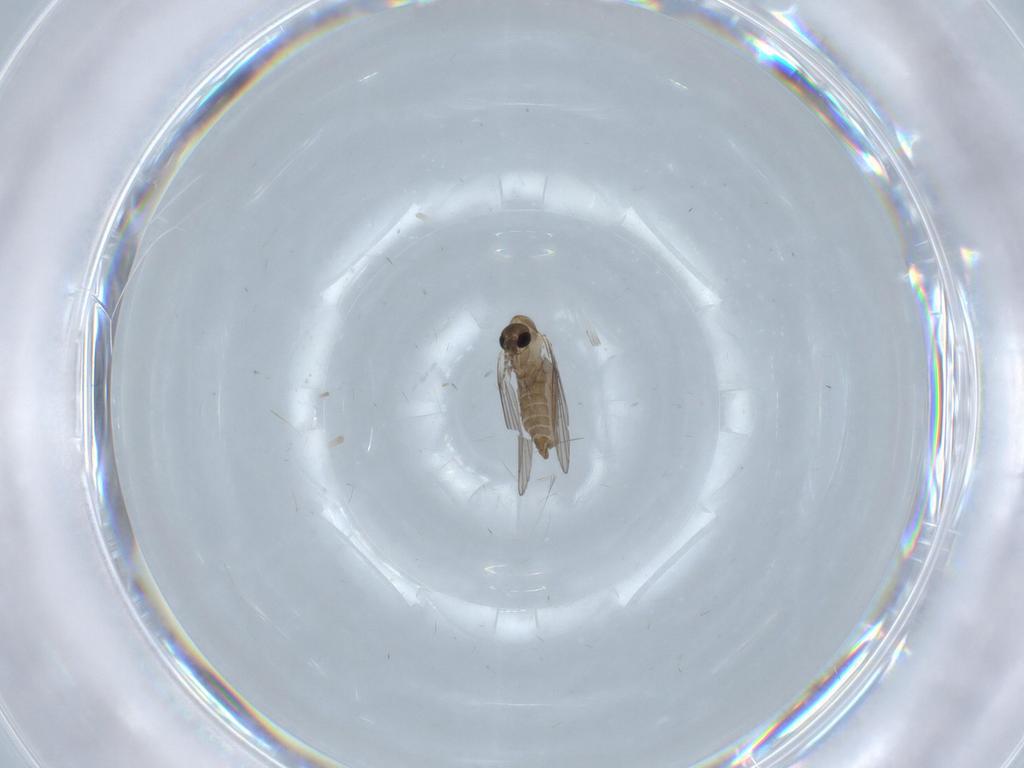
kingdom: Animalia
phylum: Arthropoda
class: Insecta
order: Diptera
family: Psychodidae
